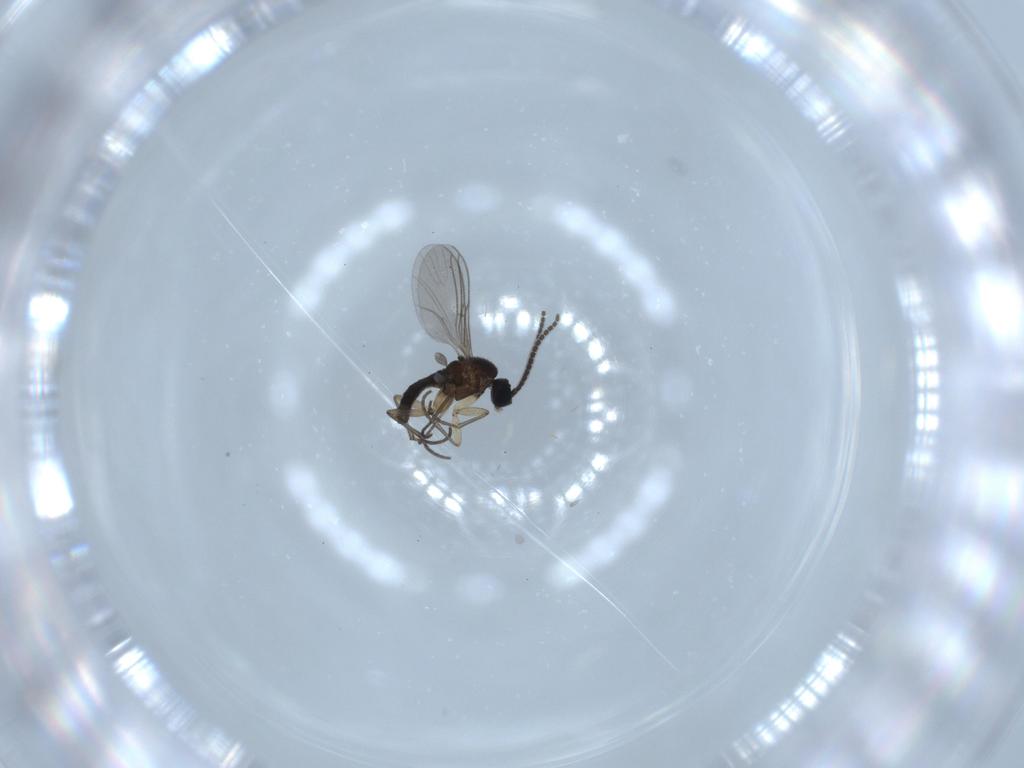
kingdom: Animalia
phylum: Arthropoda
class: Insecta
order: Diptera
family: Sciaridae
